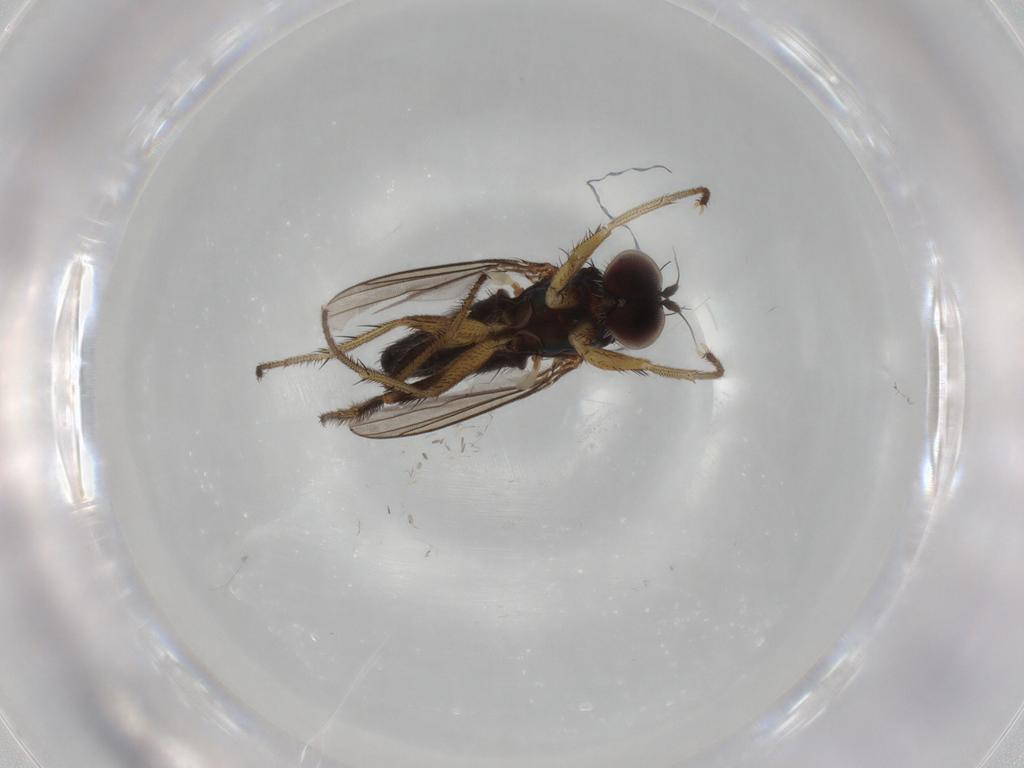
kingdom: Animalia
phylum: Arthropoda
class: Insecta
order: Diptera
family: Dolichopodidae
